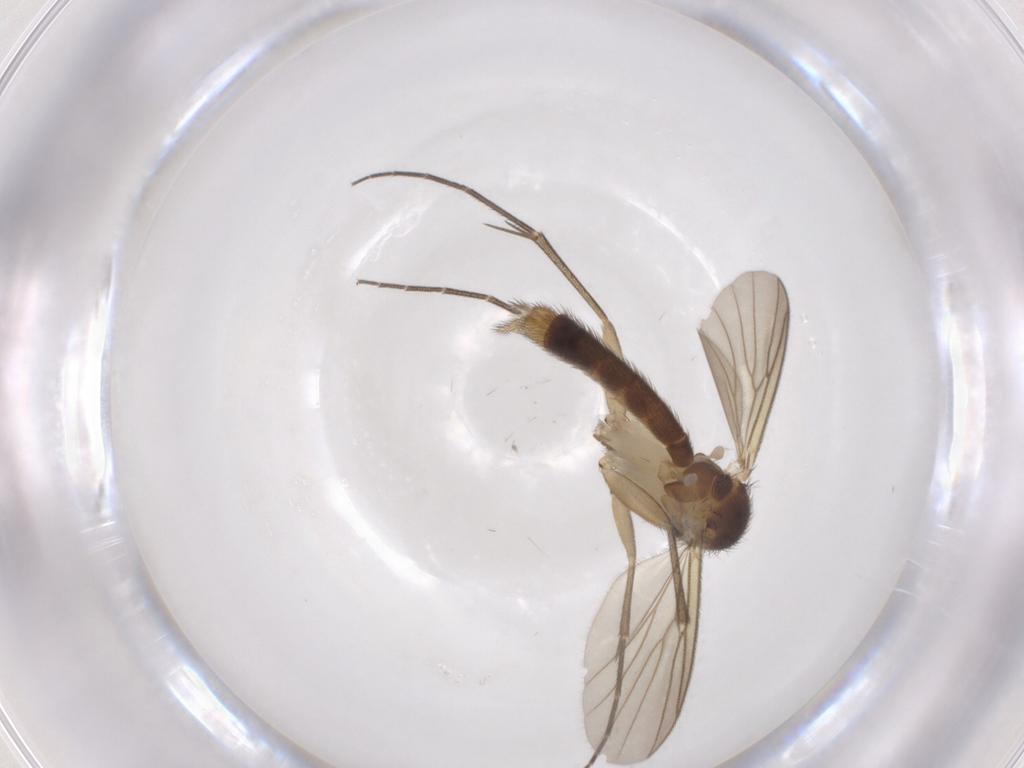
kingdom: Animalia
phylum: Arthropoda
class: Insecta
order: Diptera
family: Mycetophilidae
